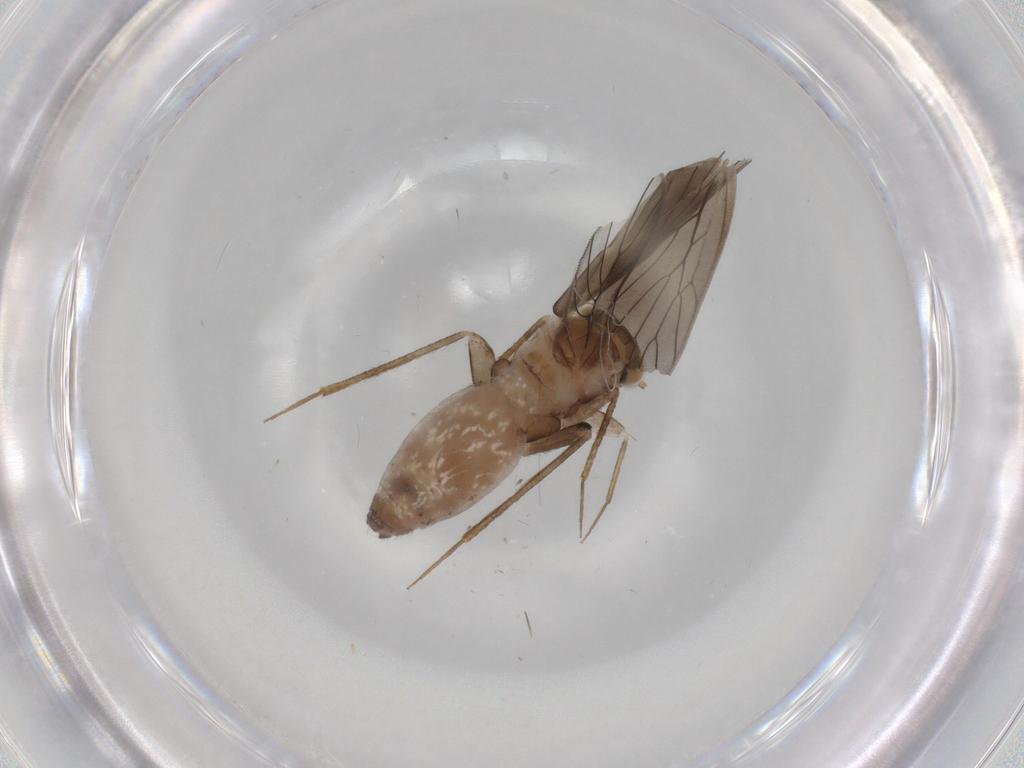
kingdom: Animalia
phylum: Arthropoda
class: Insecta
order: Psocodea
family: Lepidopsocidae
